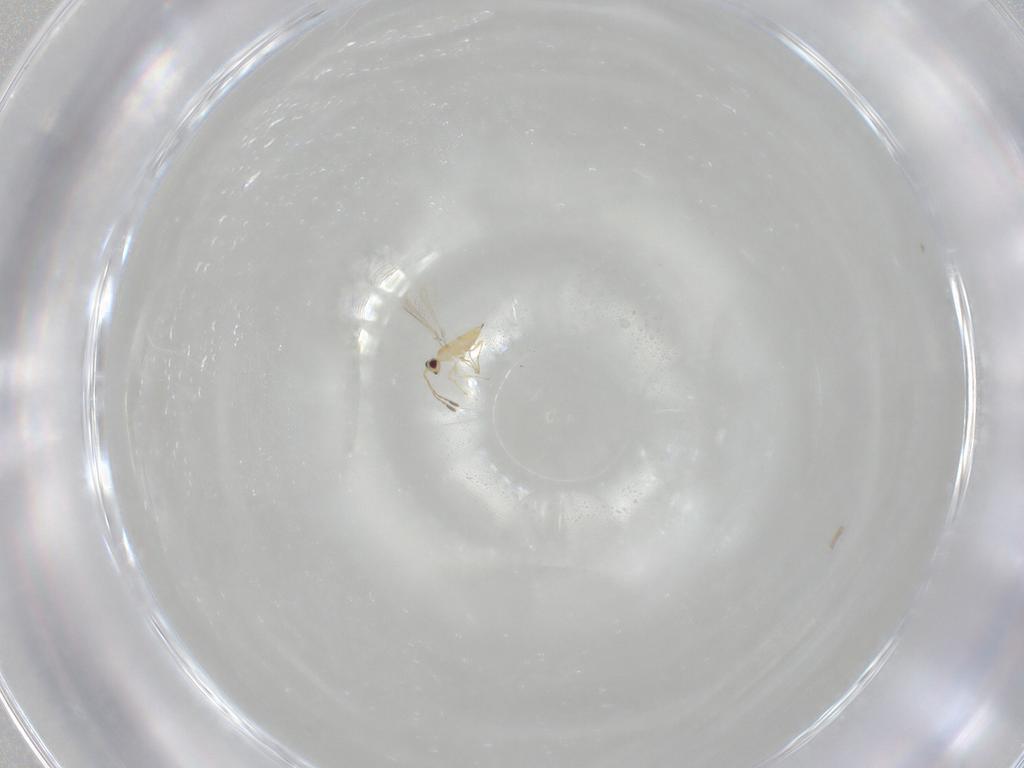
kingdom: Animalia
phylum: Arthropoda
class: Insecta
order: Hymenoptera
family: Mymaridae
